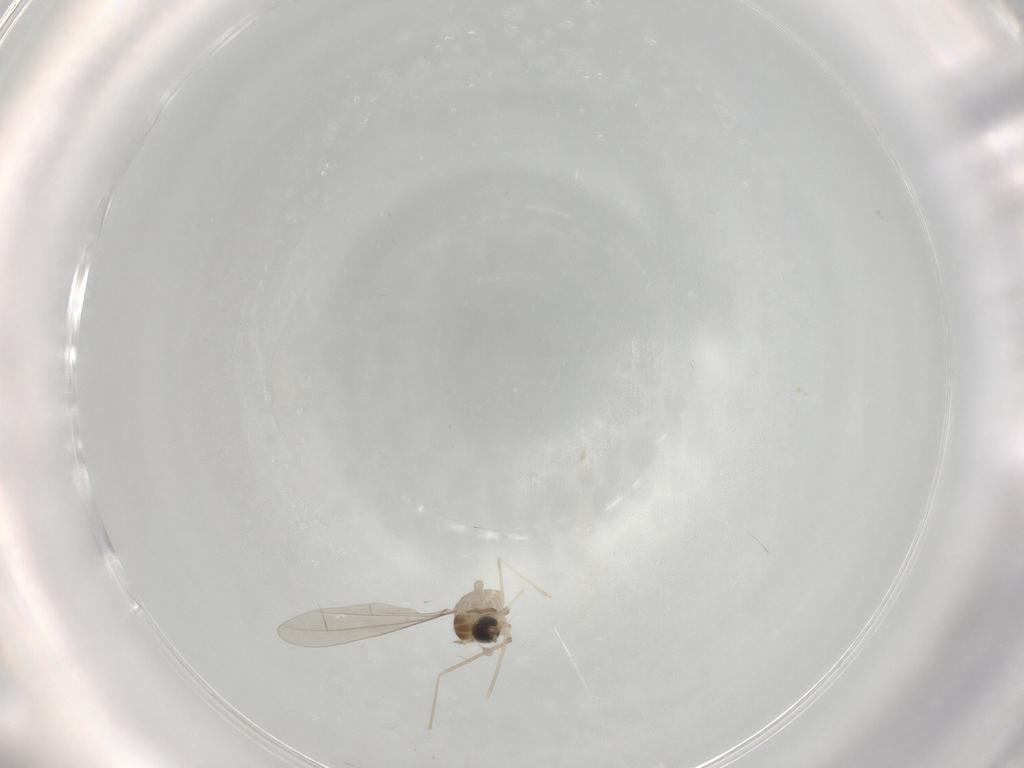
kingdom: Animalia
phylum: Arthropoda
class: Insecta
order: Diptera
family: Cecidomyiidae
